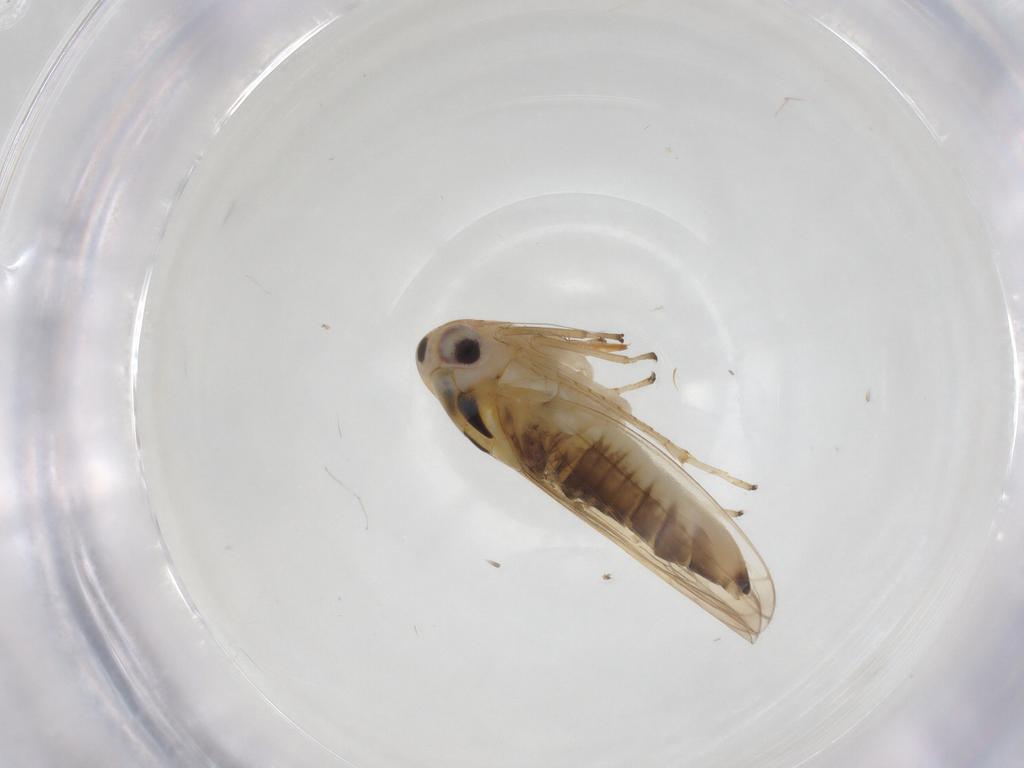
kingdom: Animalia
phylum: Arthropoda
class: Insecta
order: Hemiptera
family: Cicadellidae
